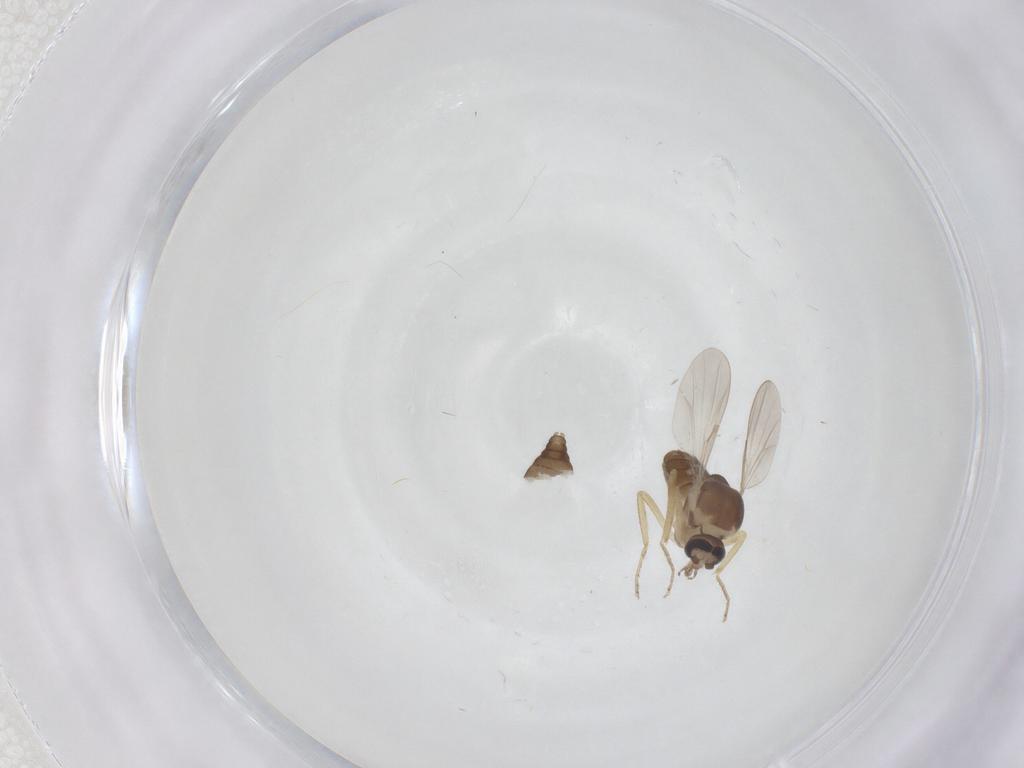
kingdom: Animalia
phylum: Arthropoda
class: Insecta
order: Diptera
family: Ceratopogonidae
